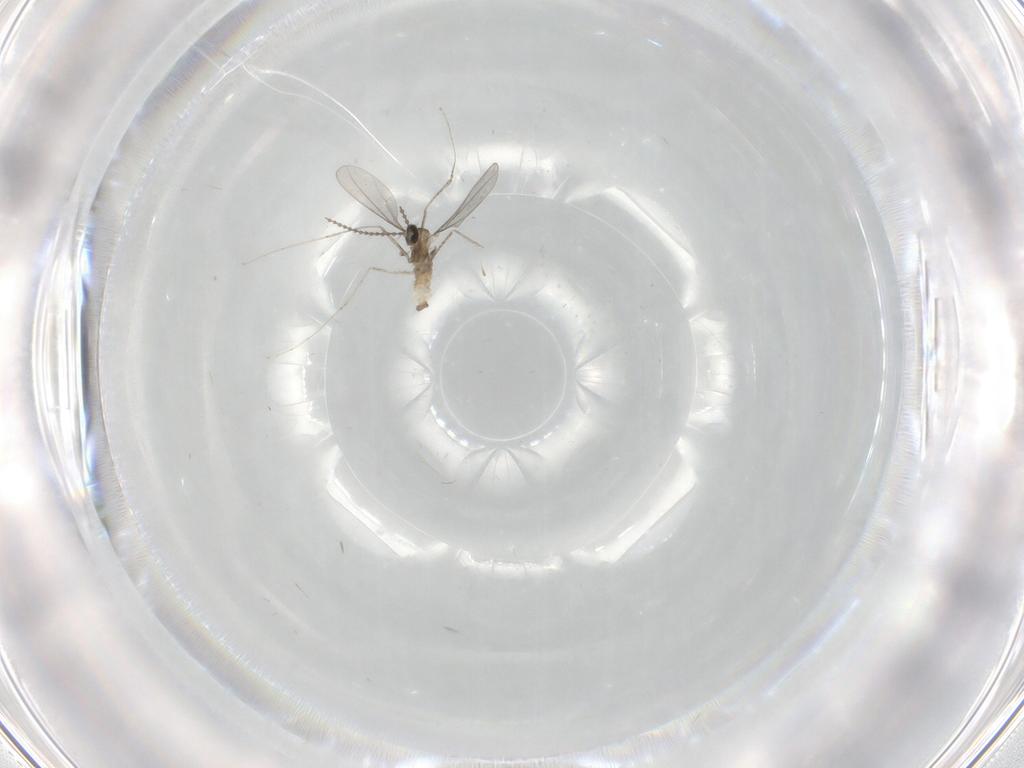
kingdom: Animalia
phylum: Arthropoda
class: Insecta
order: Diptera
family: Cecidomyiidae
